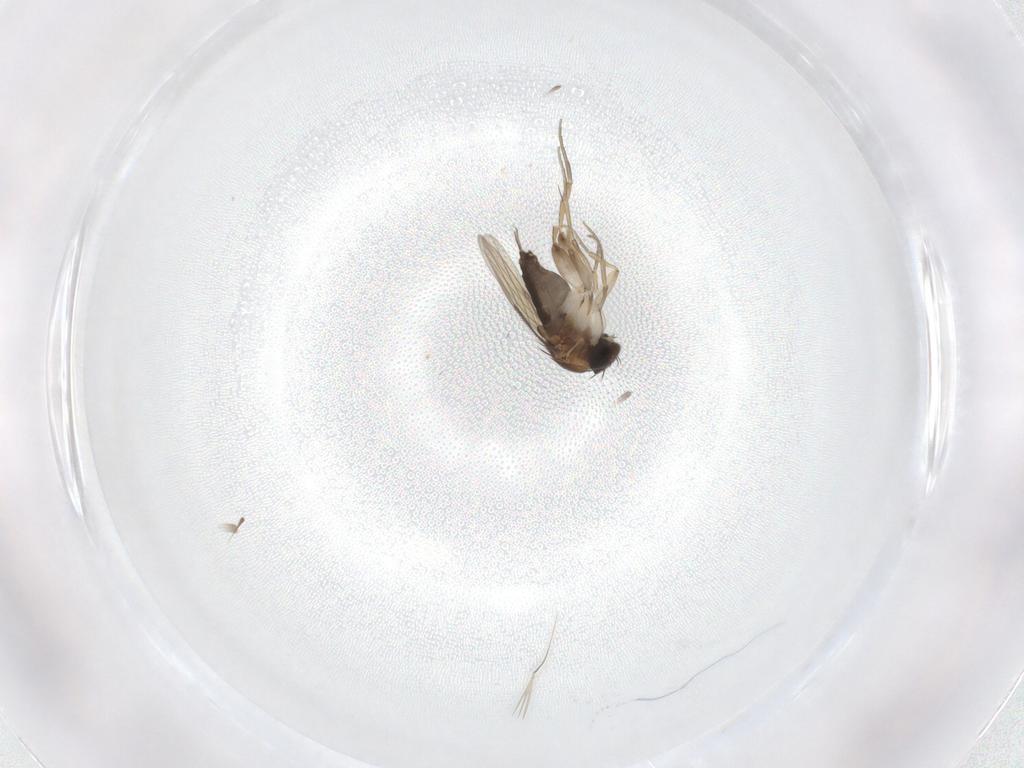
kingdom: Animalia
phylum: Arthropoda
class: Insecta
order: Diptera
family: Phoridae
